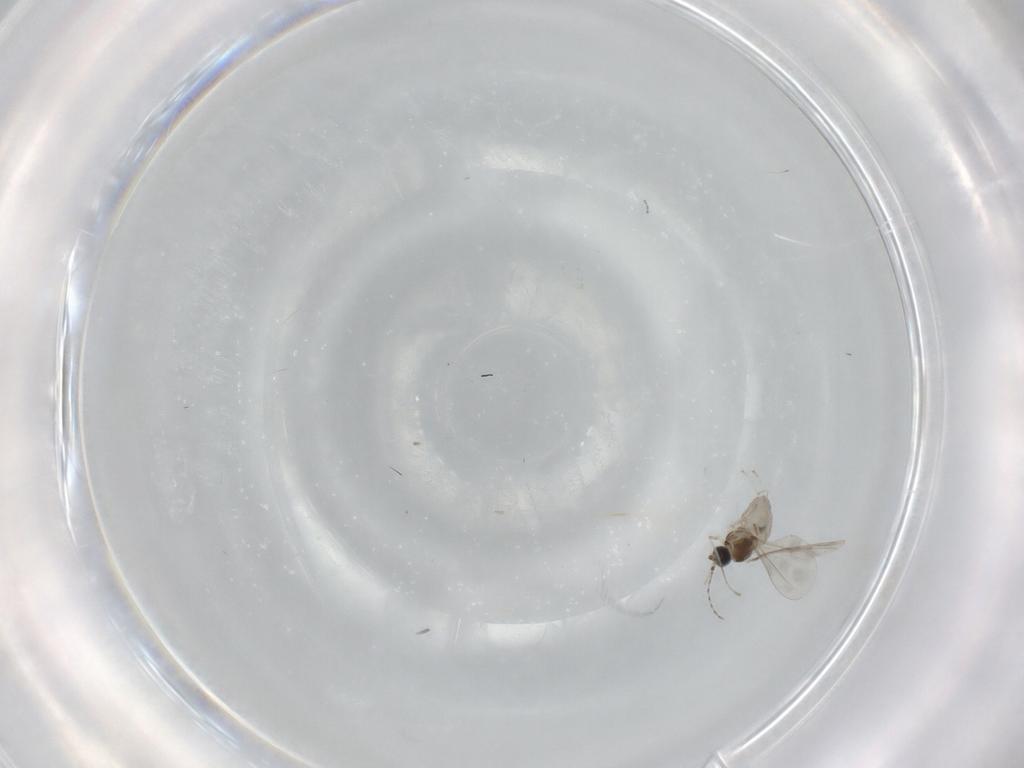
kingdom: Animalia
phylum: Arthropoda
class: Insecta
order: Diptera
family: Cecidomyiidae
